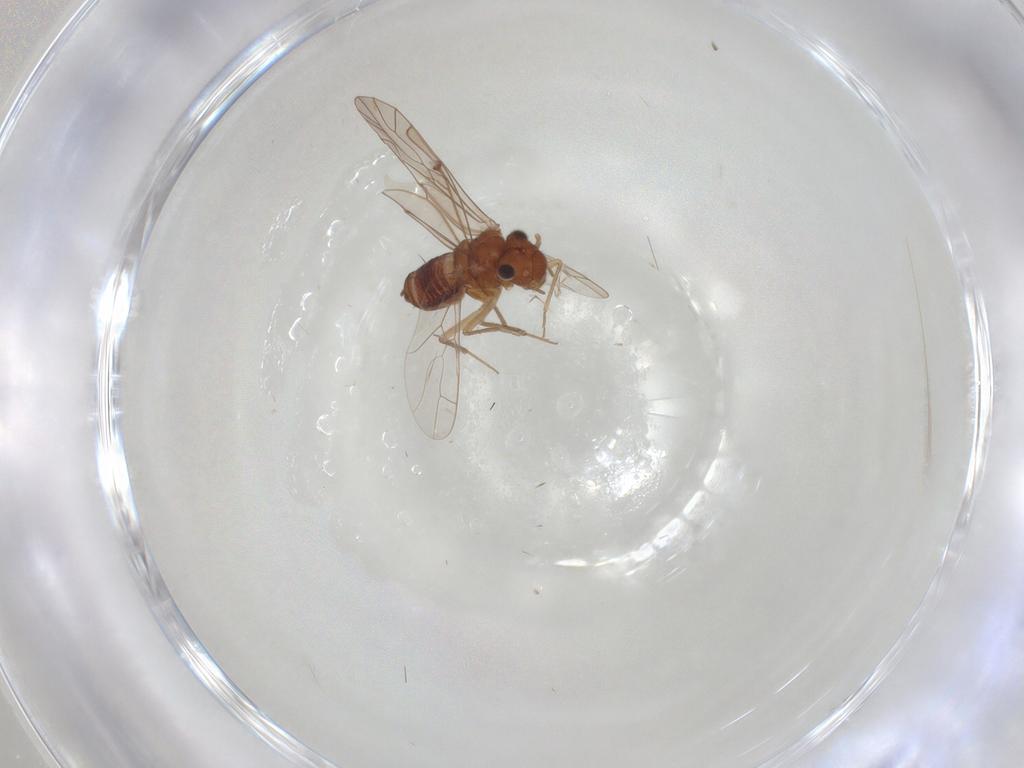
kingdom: Animalia
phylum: Arthropoda
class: Insecta
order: Psocodea
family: Lachesillidae
